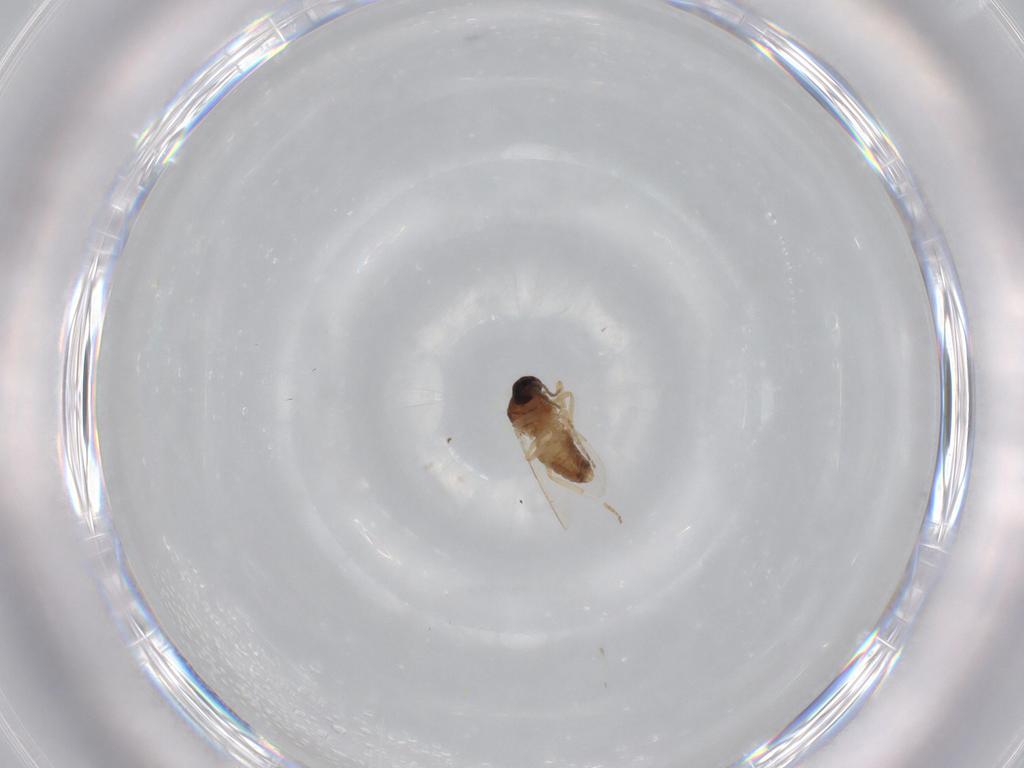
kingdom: Animalia
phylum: Arthropoda
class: Insecta
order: Diptera
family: Ceratopogonidae
